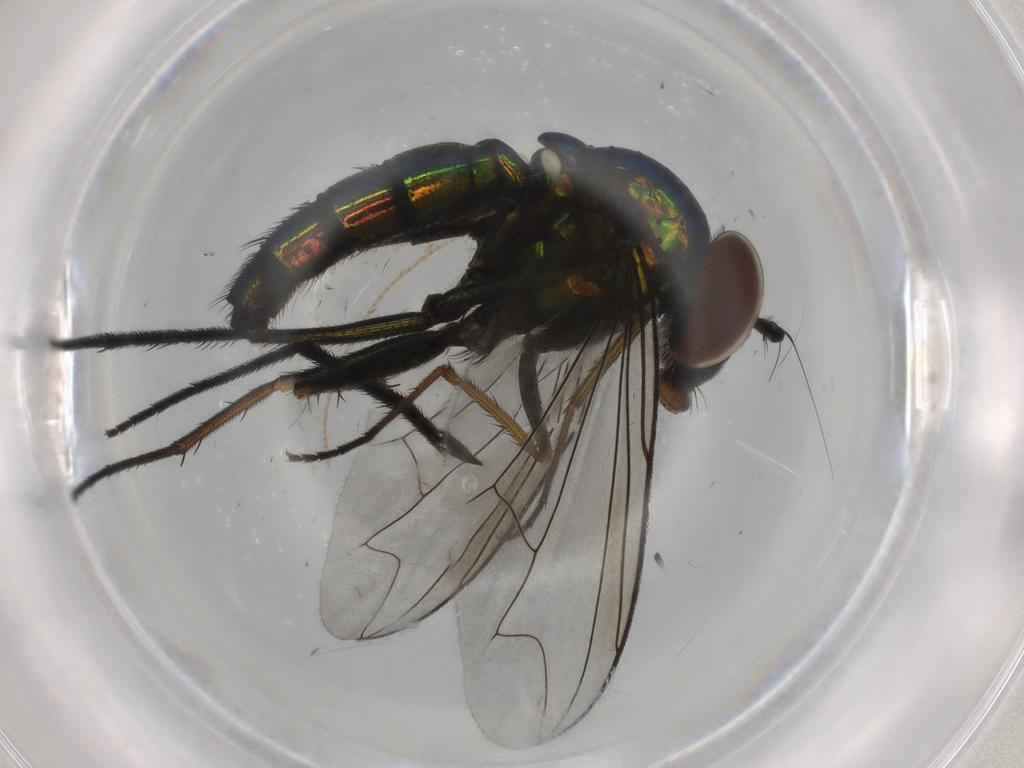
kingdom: Animalia
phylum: Arthropoda
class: Insecta
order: Diptera
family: Dolichopodidae
